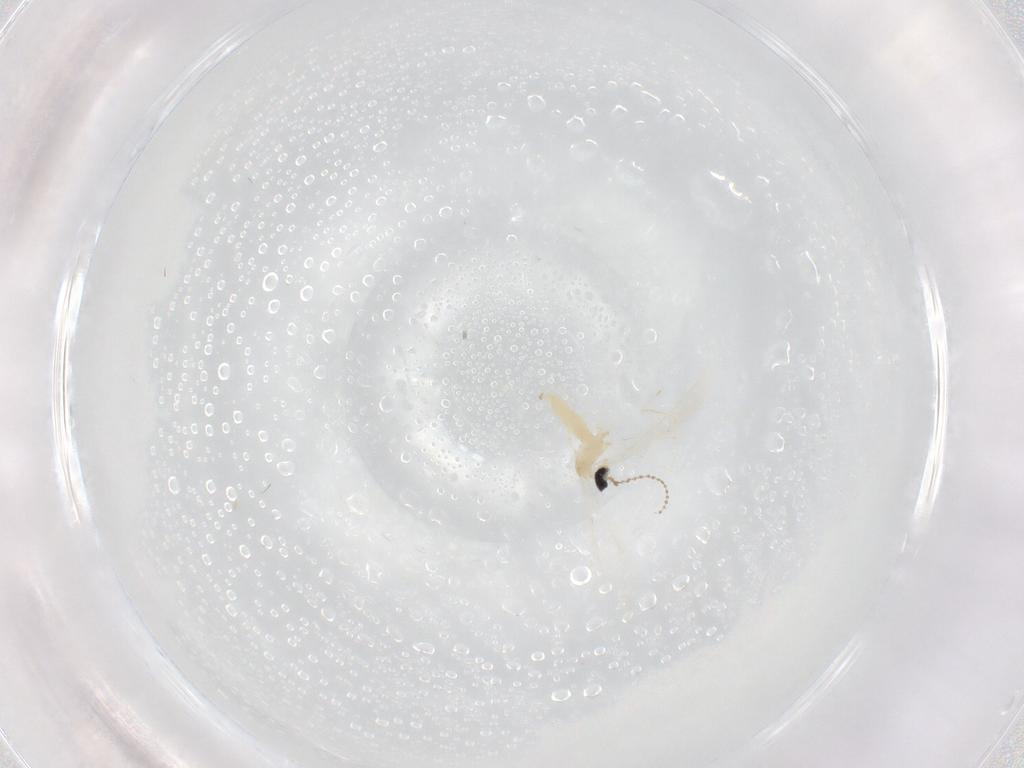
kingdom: Animalia
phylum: Arthropoda
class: Insecta
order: Diptera
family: Cecidomyiidae
